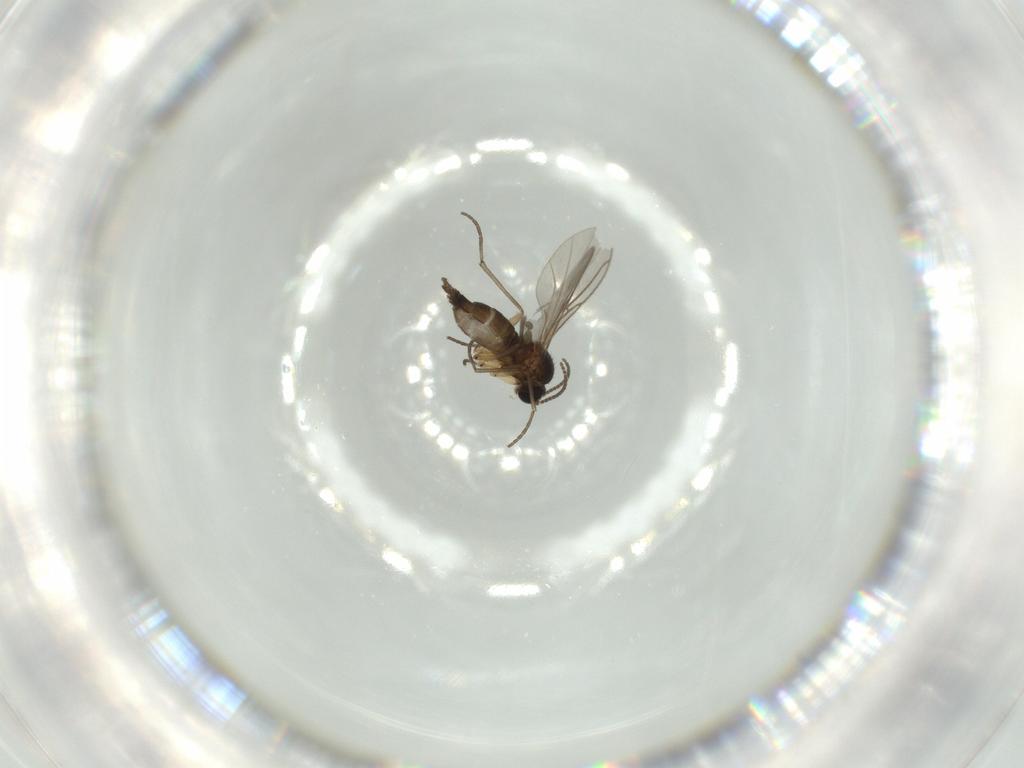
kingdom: Animalia
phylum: Arthropoda
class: Insecta
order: Diptera
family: Sciaridae
